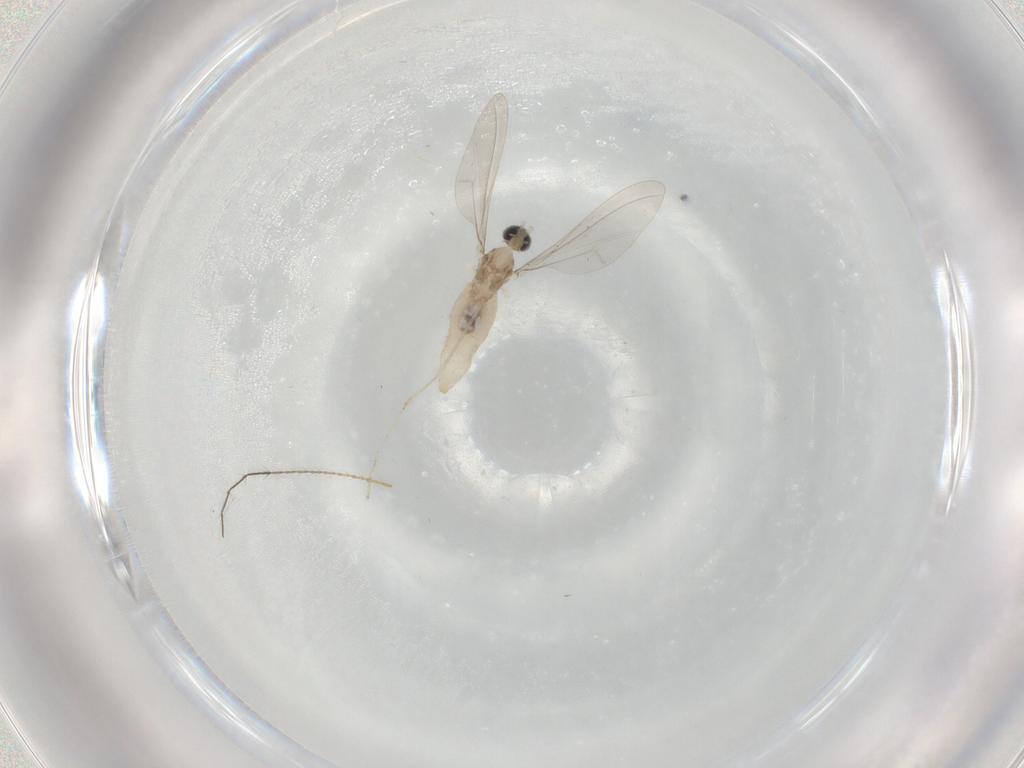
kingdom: Animalia
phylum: Arthropoda
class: Insecta
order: Diptera
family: Cecidomyiidae
